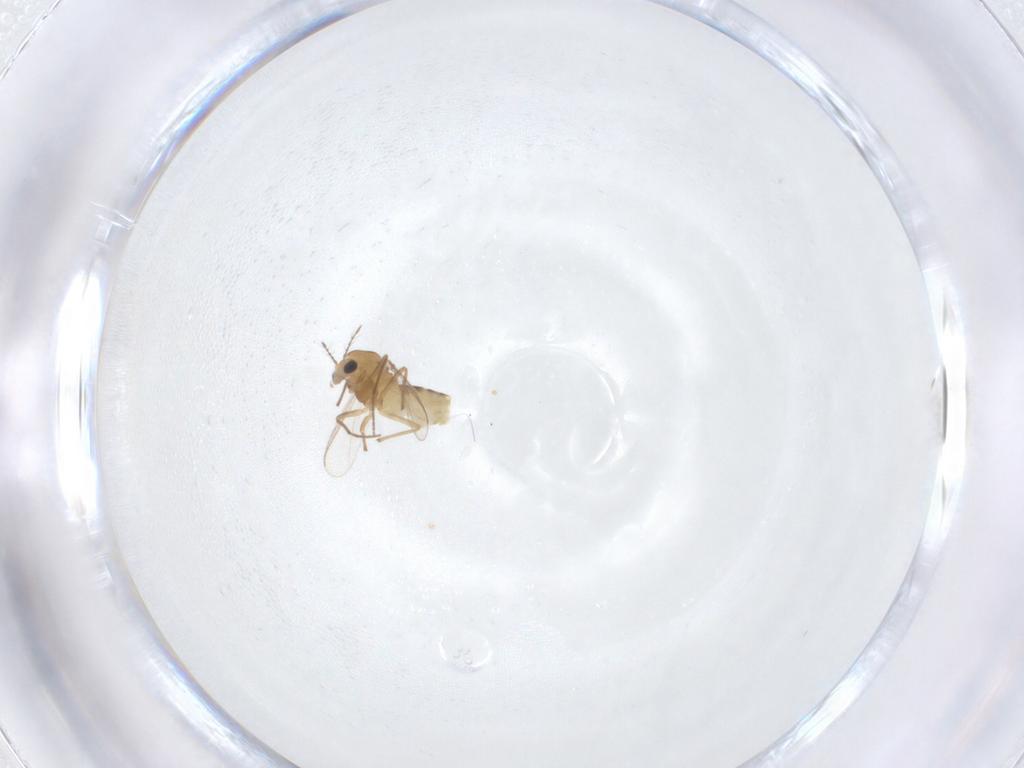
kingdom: Animalia
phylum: Arthropoda
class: Insecta
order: Diptera
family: Chironomidae
